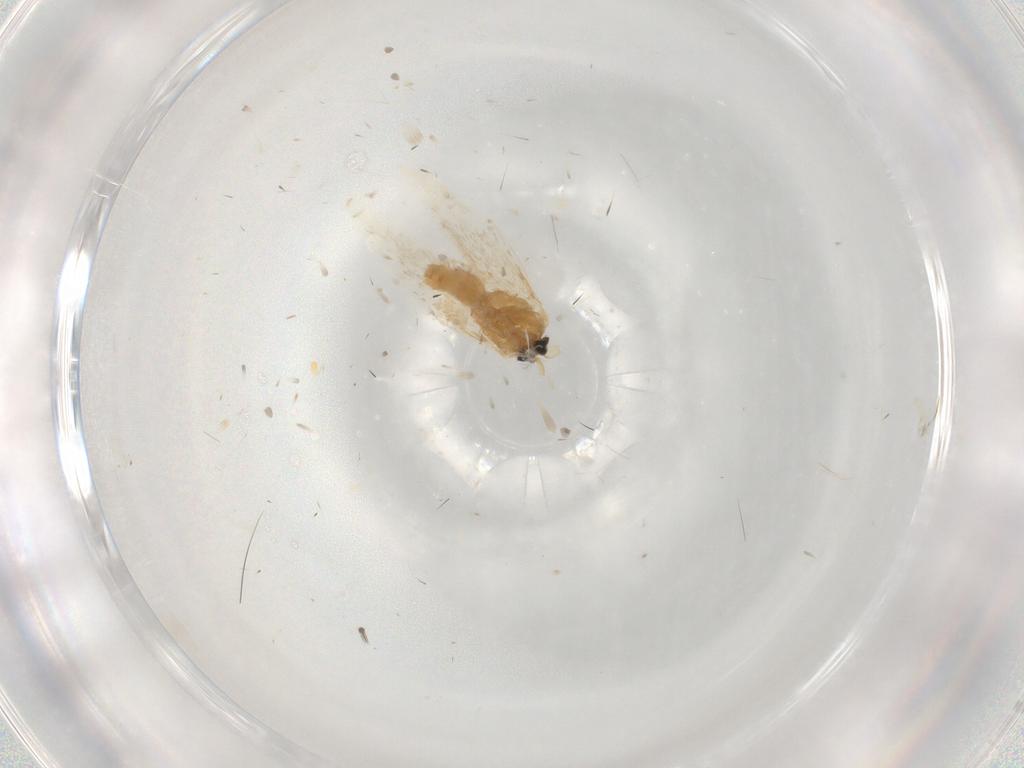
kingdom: Animalia
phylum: Arthropoda
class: Insecta
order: Lepidoptera
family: Nepticulidae
